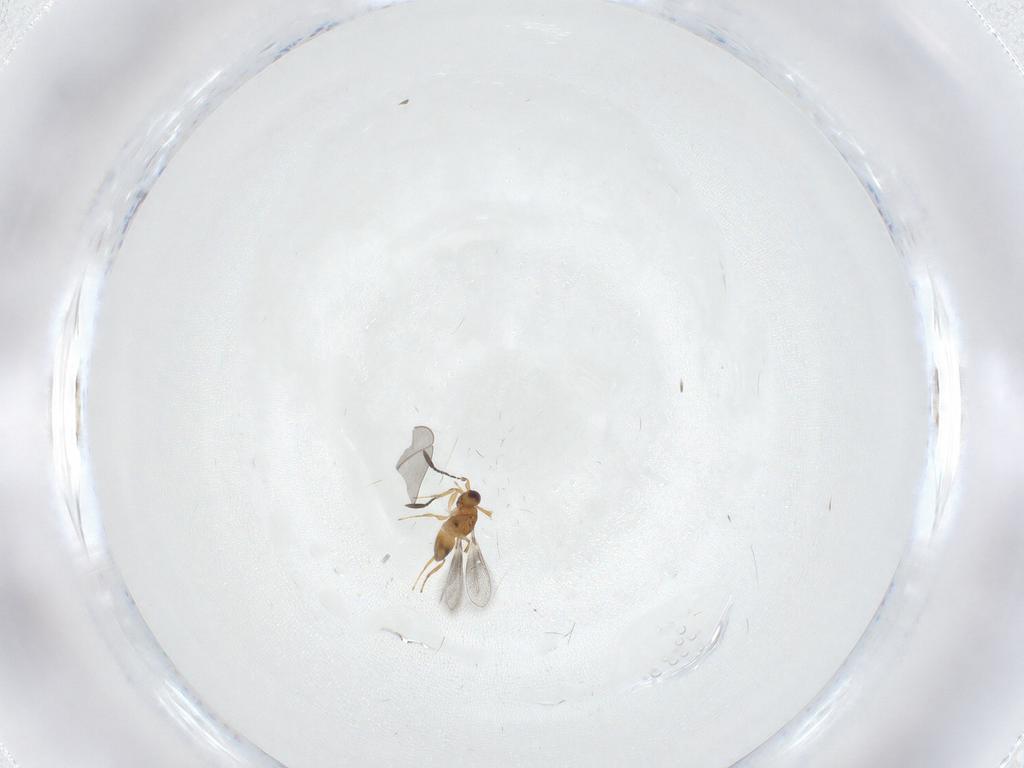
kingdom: Animalia
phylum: Arthropoda
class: Insecta
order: Hymenoptera
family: Mymaridae
